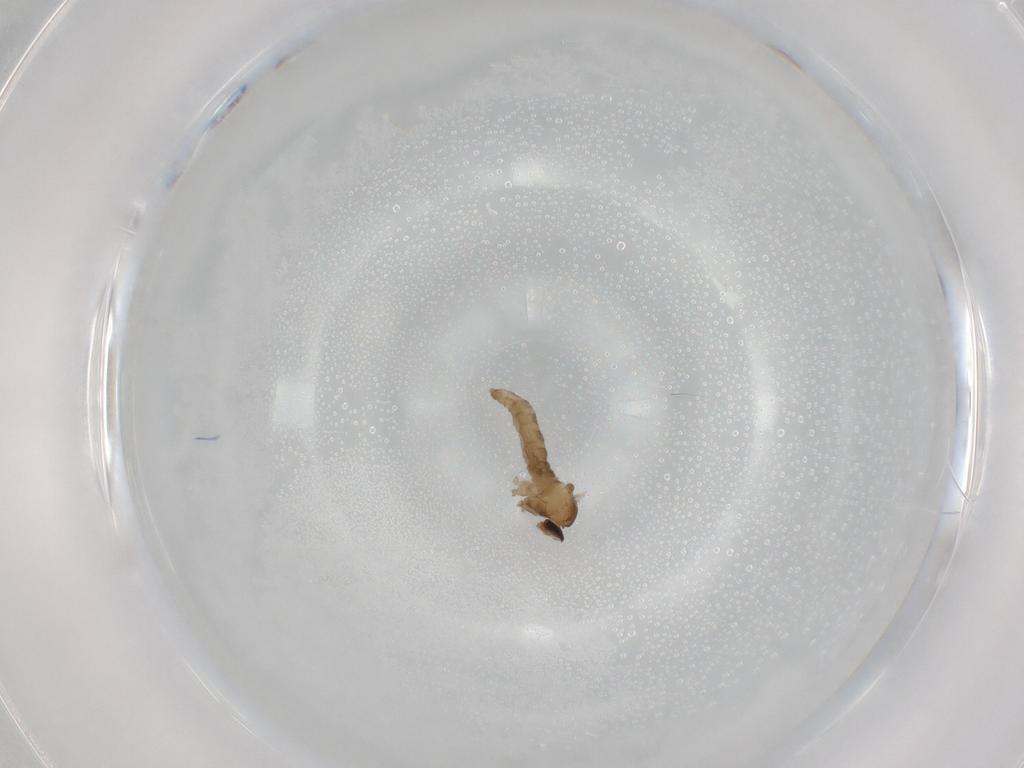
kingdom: Animalia
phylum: Arthropoda
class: Insecta
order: Diptera
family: Cecidomyiidae
